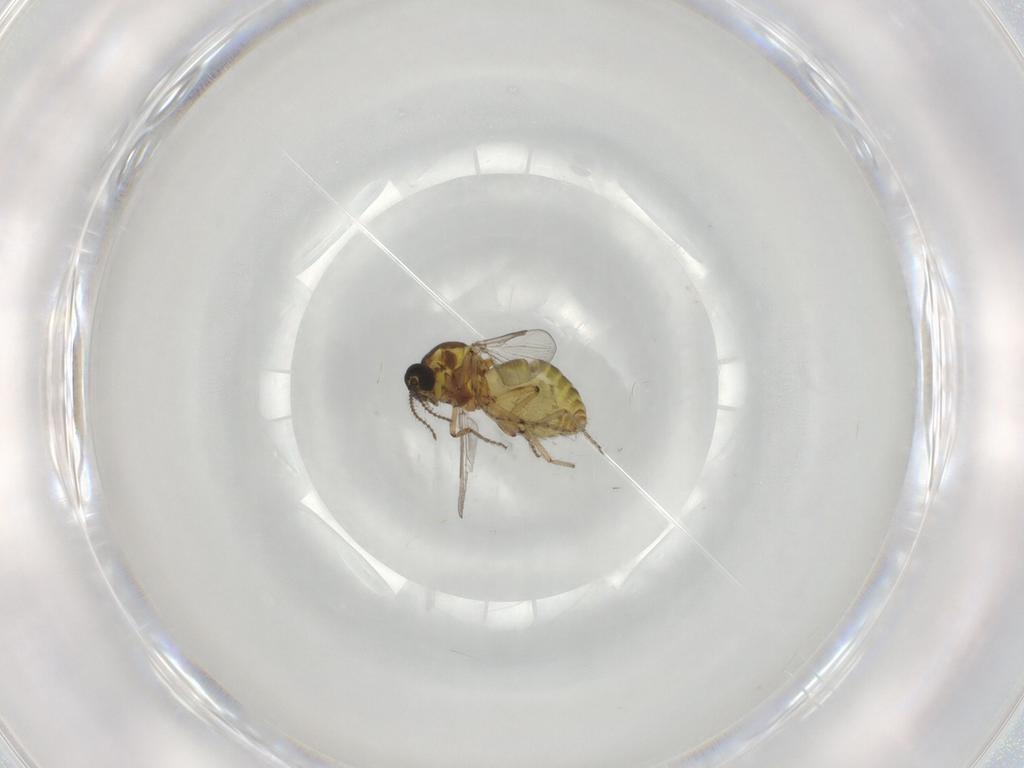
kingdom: Animalia
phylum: Arthropoda
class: Insecta
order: Diptera
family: Ceratopogonidae
